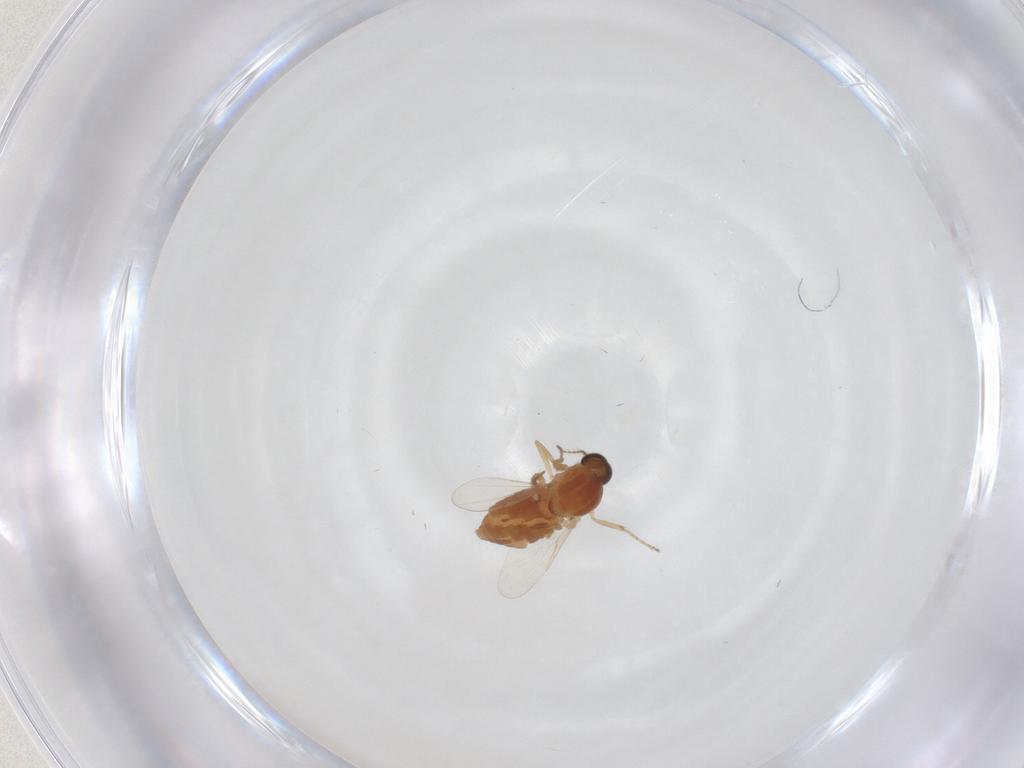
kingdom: Animalia
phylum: Arthropoda
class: Insecta
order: Diptera
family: Ceratopogonidae
